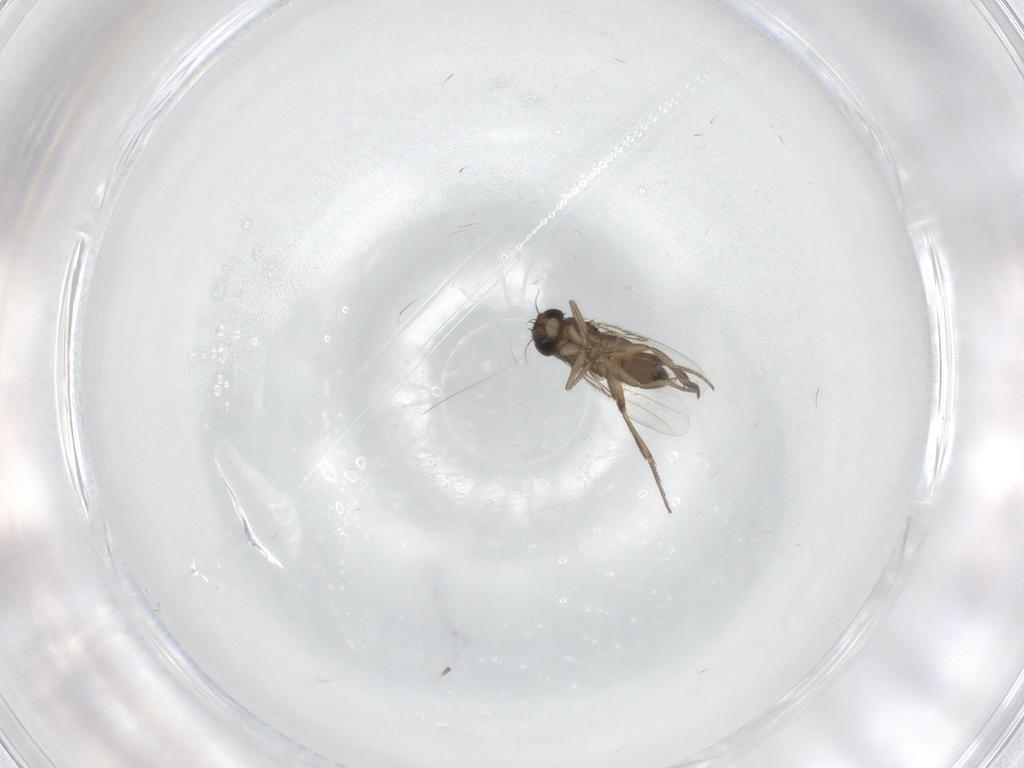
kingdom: Animalia
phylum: Arthropoda
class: Insecta
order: Diptera
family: Phoridae
